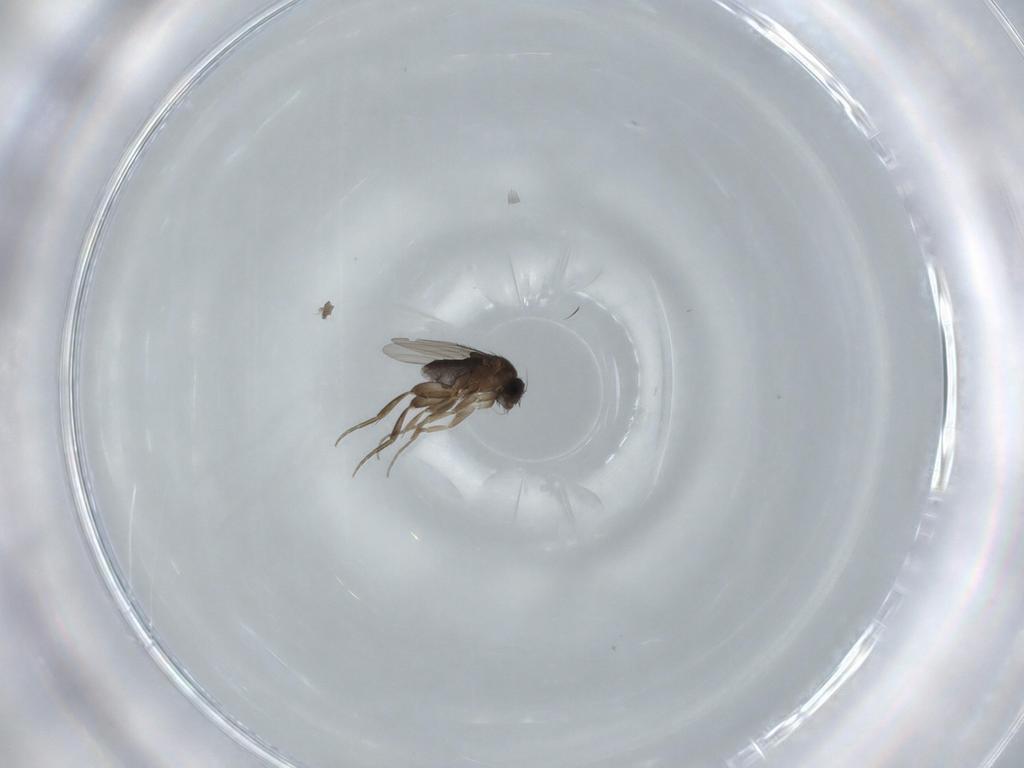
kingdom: Animalia
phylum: Arthropoda
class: Insecta
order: Diptera
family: Phoridae
